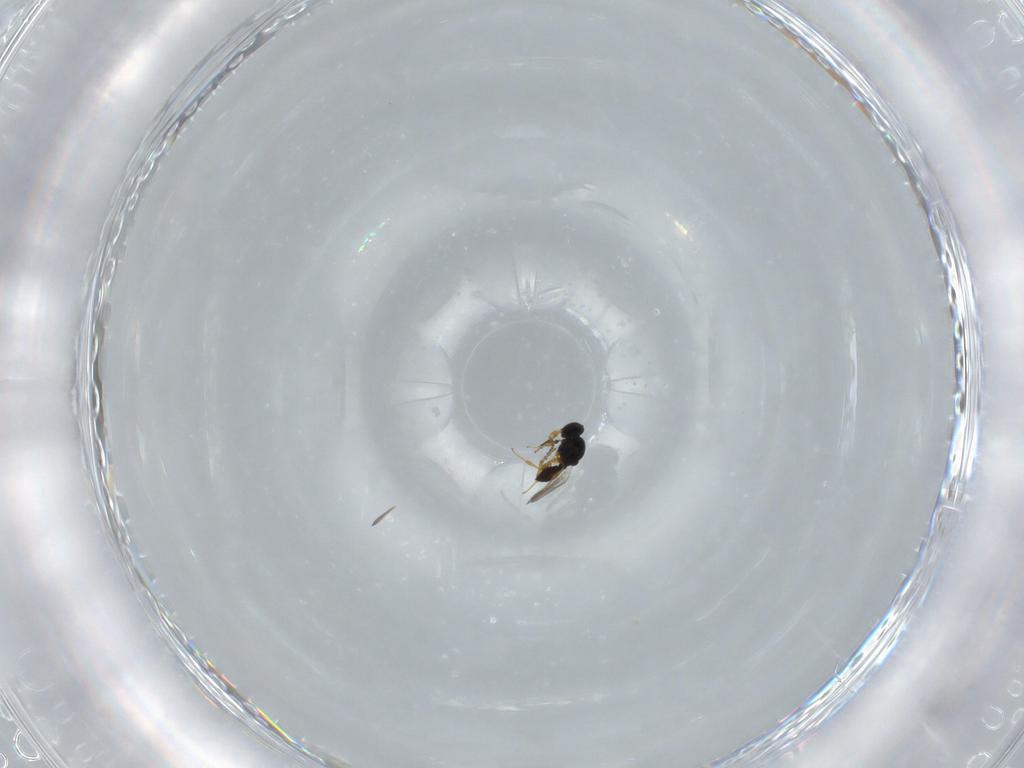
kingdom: Animalia
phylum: Arthropoda
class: Insecta
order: Hymenoptera
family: Platygastridae
